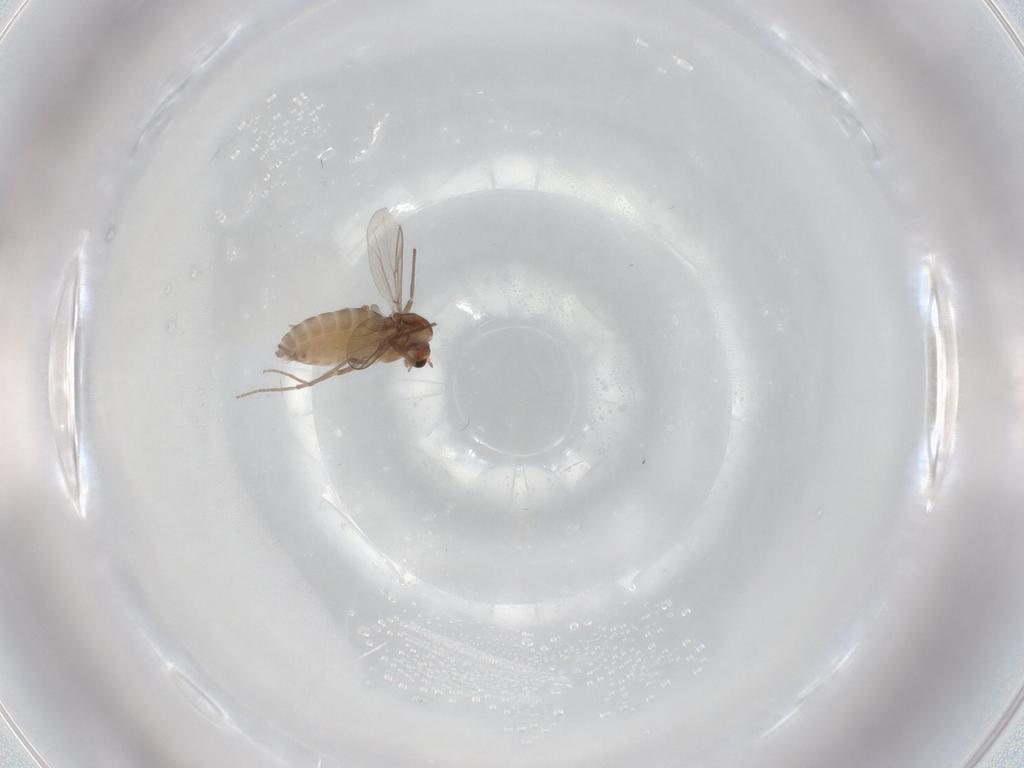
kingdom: Animalia
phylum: Arthropoda
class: Insecta
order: Diptera
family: Chironomidae
